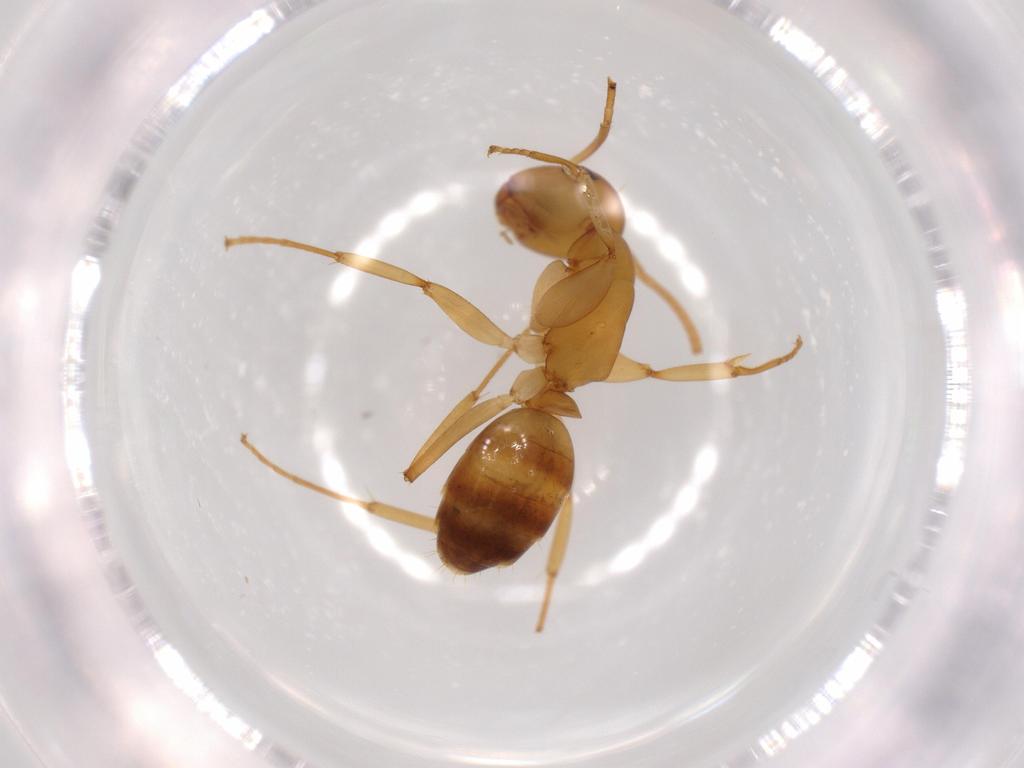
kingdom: Animalia
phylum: Arthropoda
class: Insecta
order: Hymenoptera
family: Formicidae
